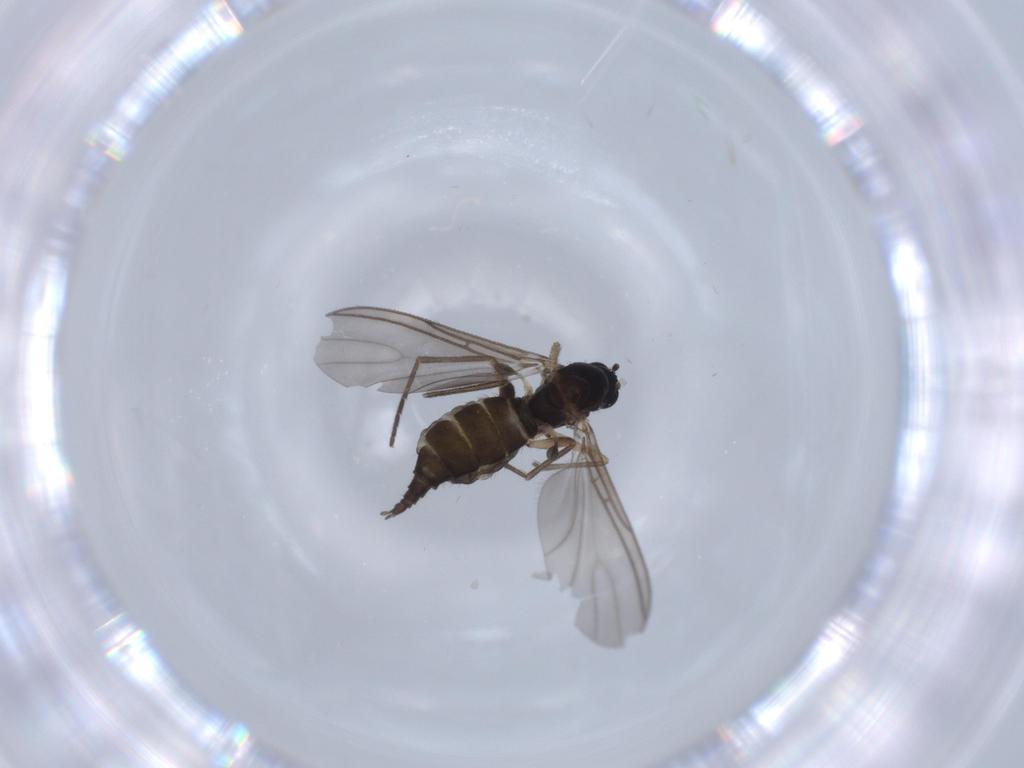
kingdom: Animalia
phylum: Arthropoda
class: Insecta
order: Diptera
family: Sciaridae
